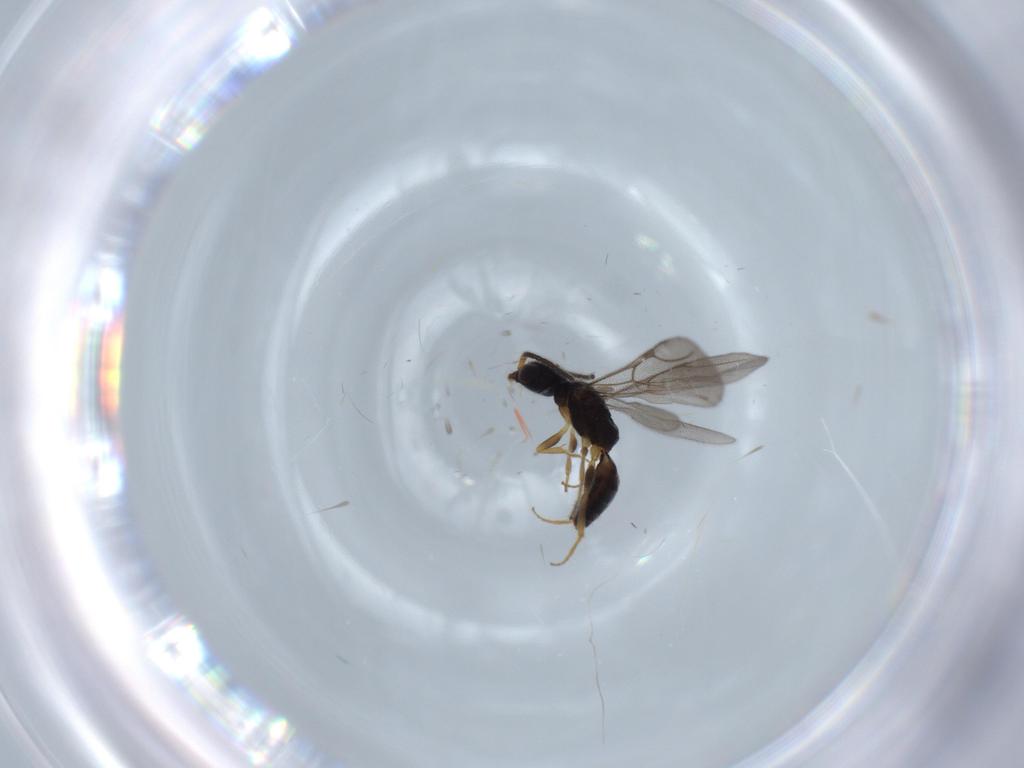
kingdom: Animalia
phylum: Arthropoda
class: Insecta
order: Hymenoptera
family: Bethylidae
